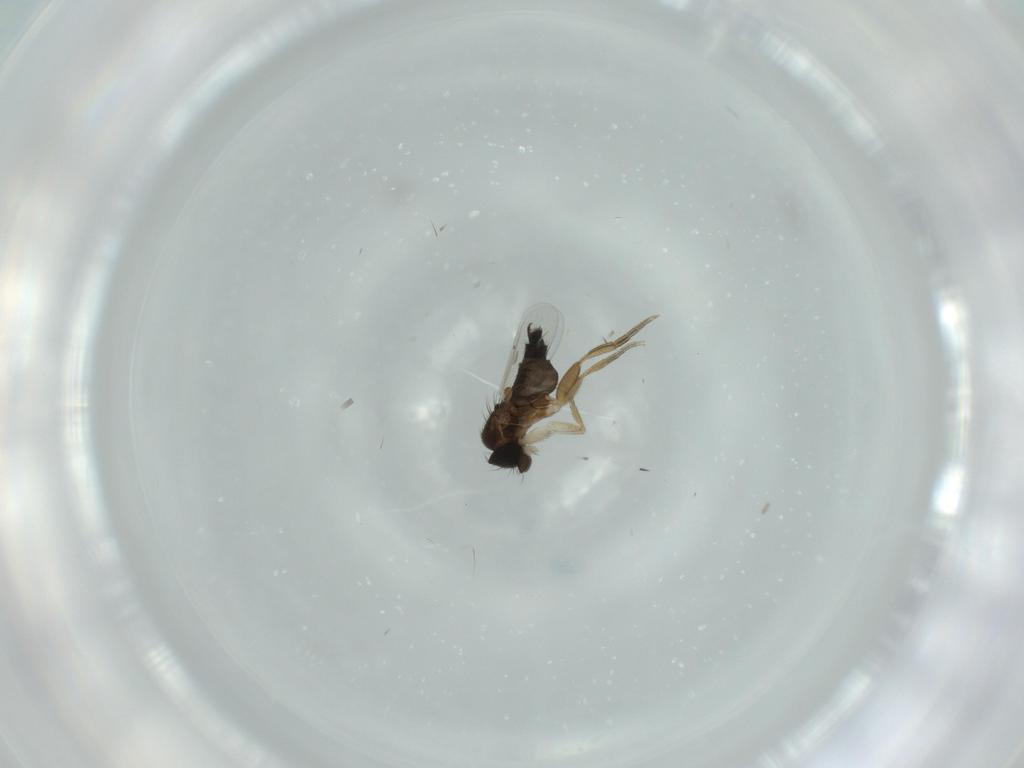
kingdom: Animalia
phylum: Arthropoda
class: Insecta
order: Diptera
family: Phoridae
